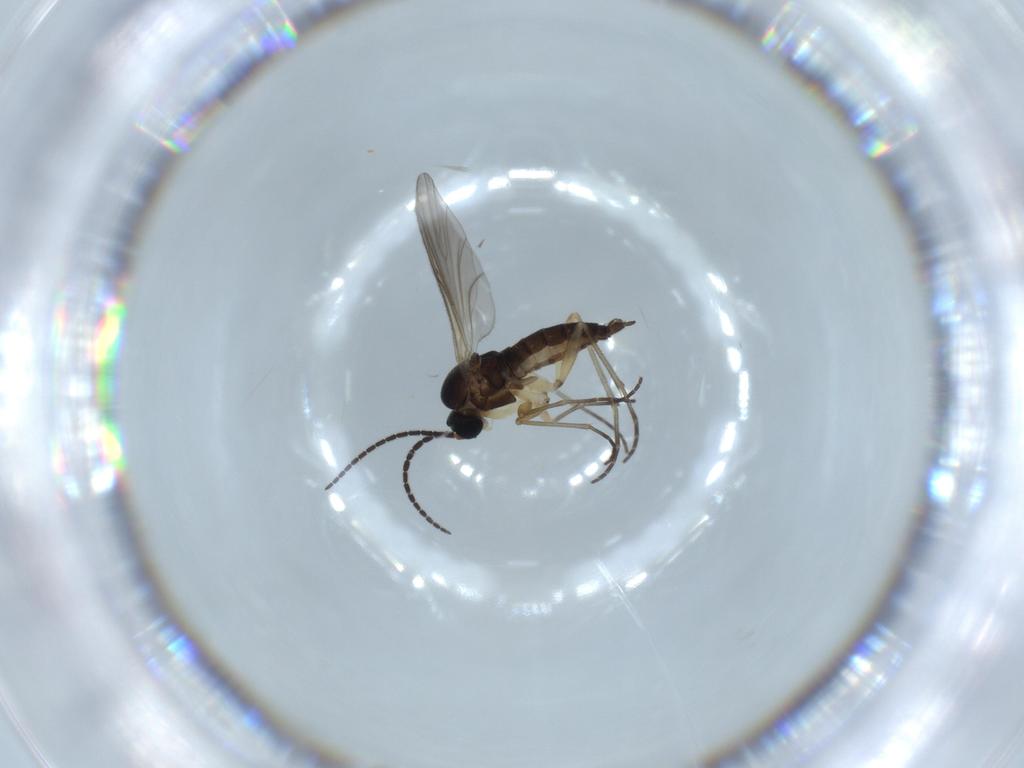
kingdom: Animalia
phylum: Arthropoda
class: Insecta
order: Diptera
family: Sciaridae
